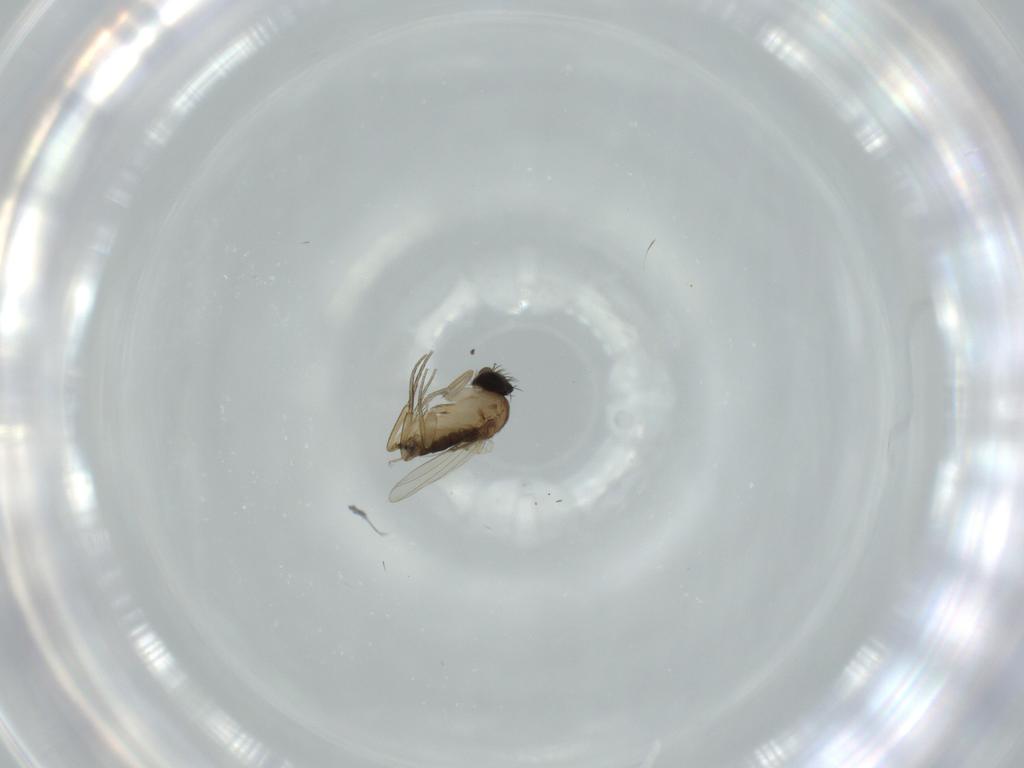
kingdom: Animalia
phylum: Arthropoda
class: Insecta
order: Diptera
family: Phoridae
